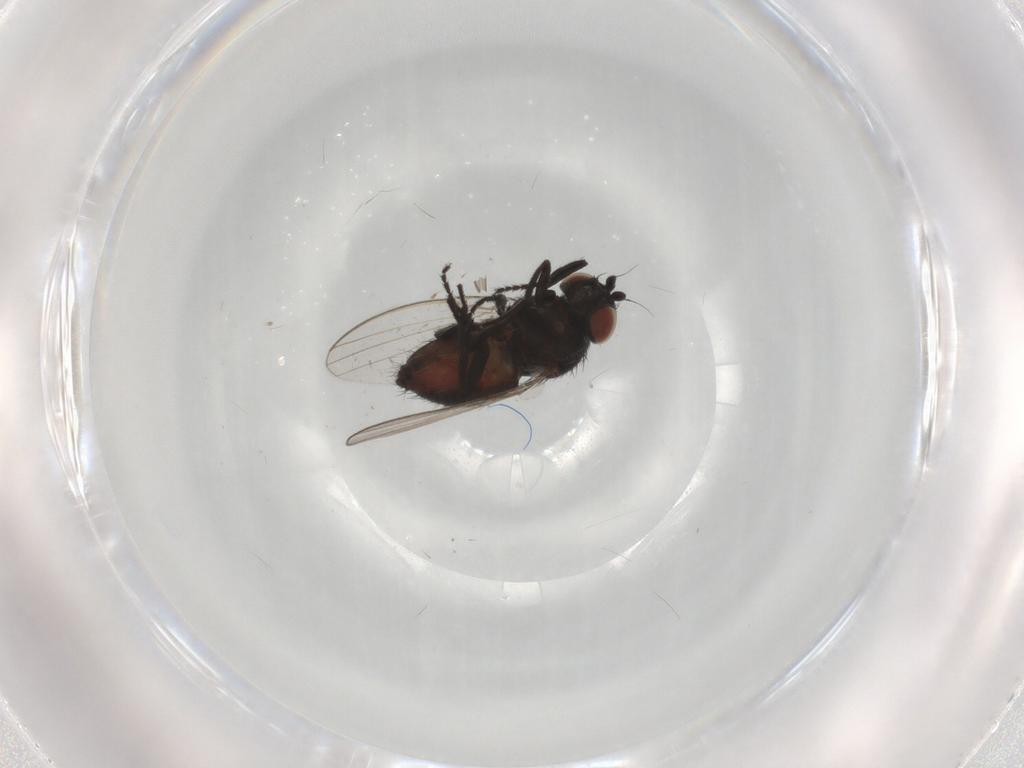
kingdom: Animalia
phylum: Arthropoda
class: Insecta
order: Diptera
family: Milichiidae
